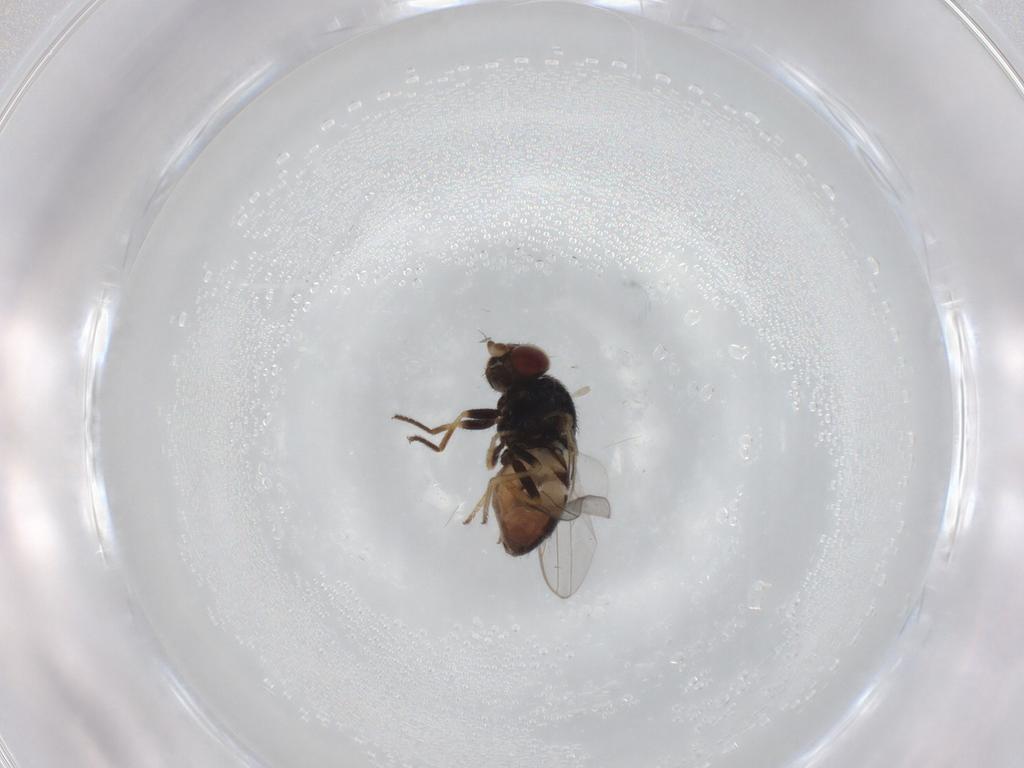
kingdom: Animalia
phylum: Arthropoda
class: Insecta
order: Diptera
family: Chloropidae
